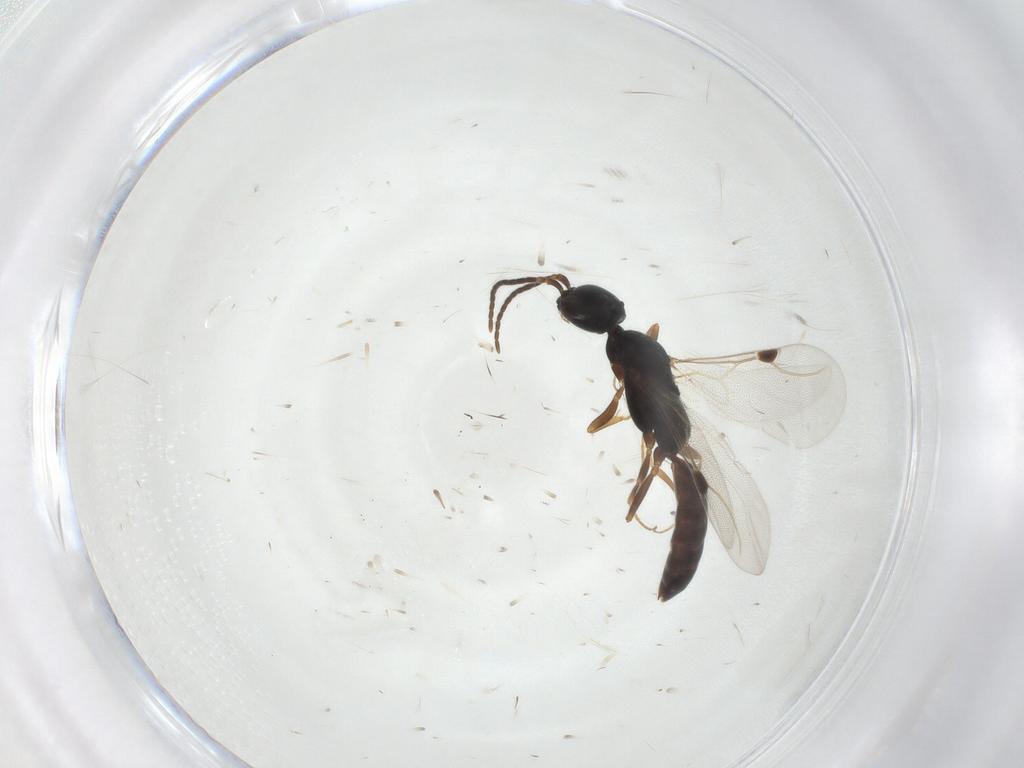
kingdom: Animalia
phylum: Arthropoda
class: Insecta
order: Hymenoptera
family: Bethylidae
